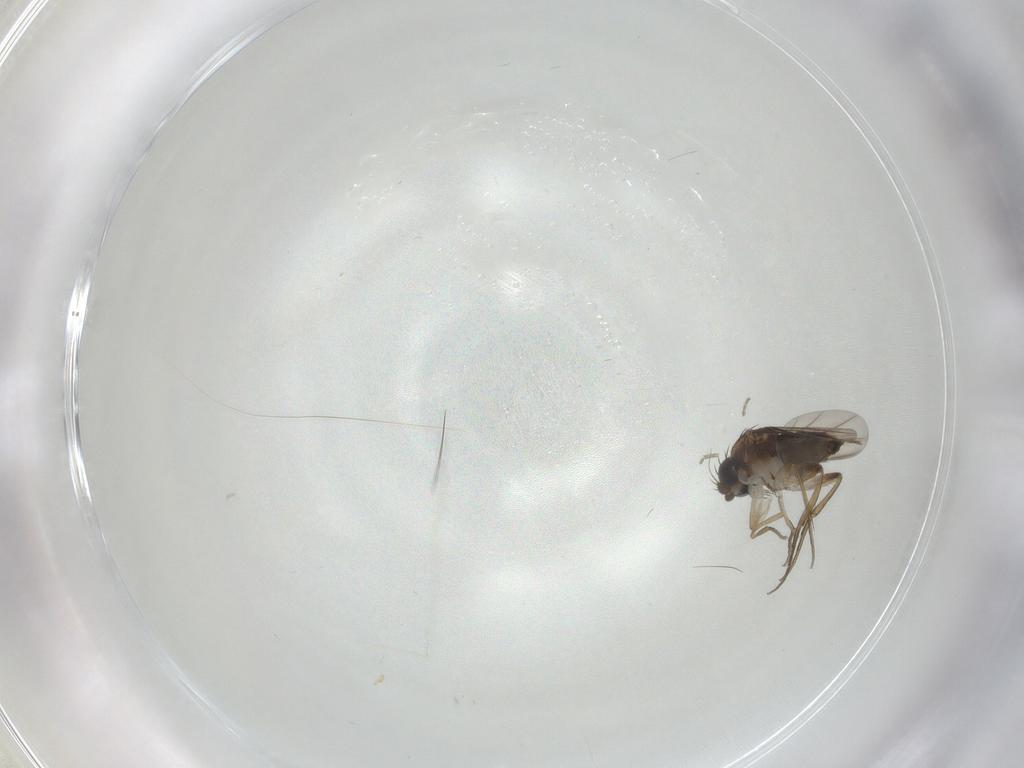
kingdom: Animalia
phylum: Arthropoda
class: Insecta
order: Diptera
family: Phoridae
